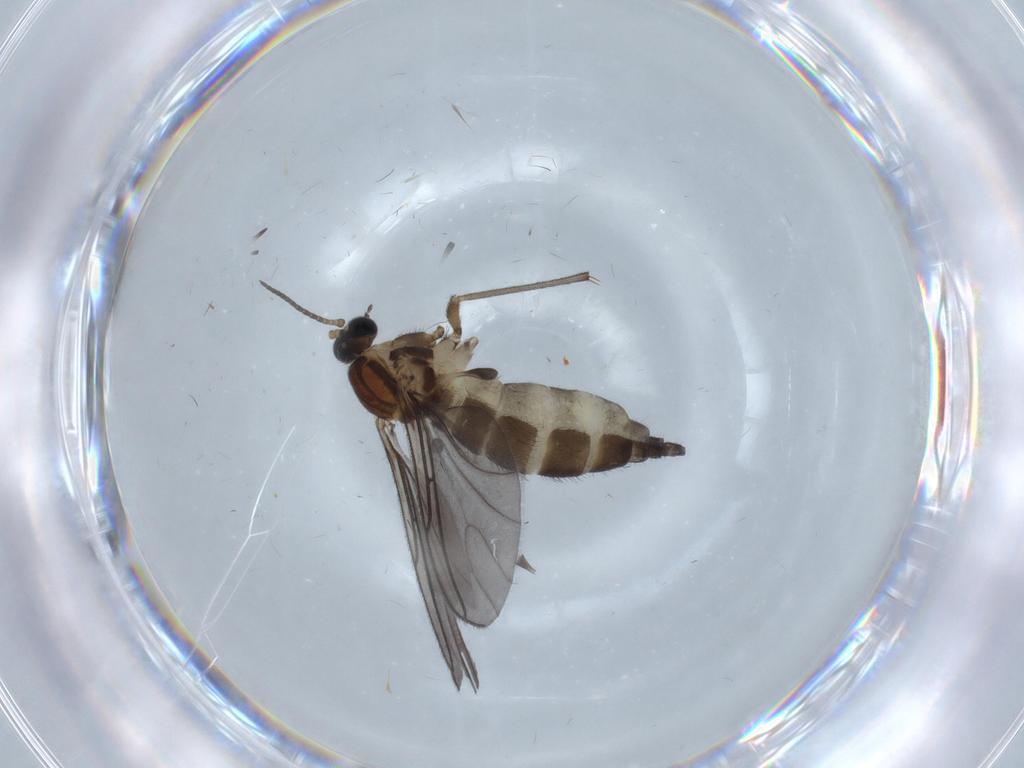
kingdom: Animalia
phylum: Arthropoda
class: Insecta
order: Diptera
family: Sciaridae
